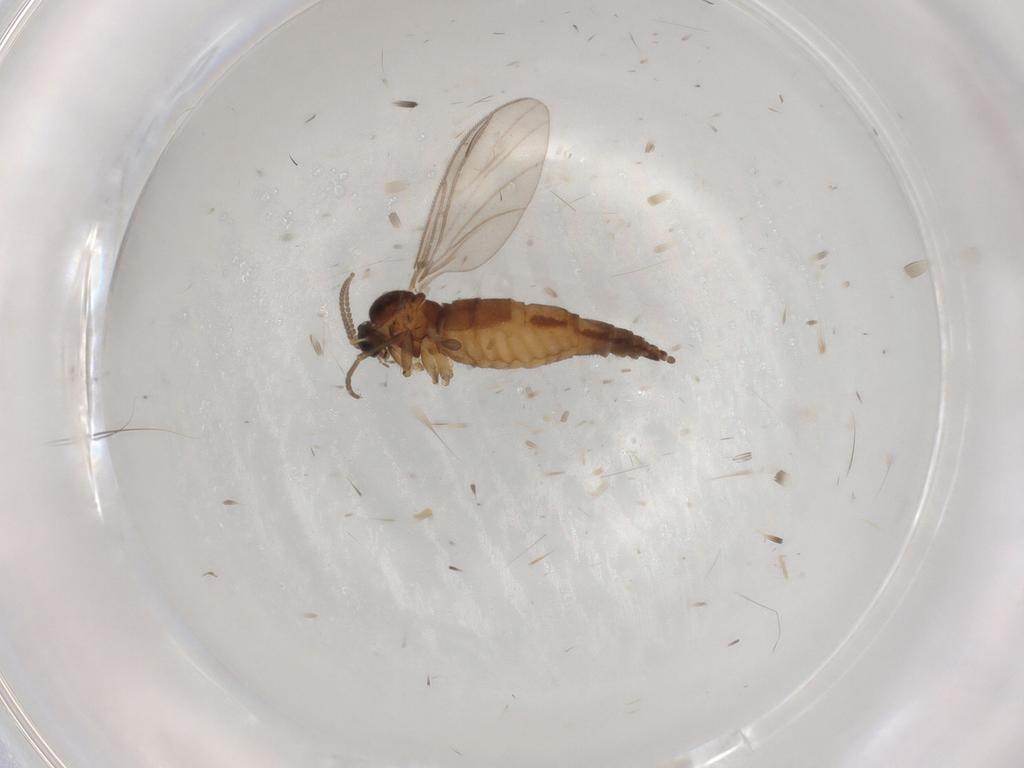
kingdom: Animalia
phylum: Arthropoda
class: Insecta
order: Diptera
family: Sciaridae
